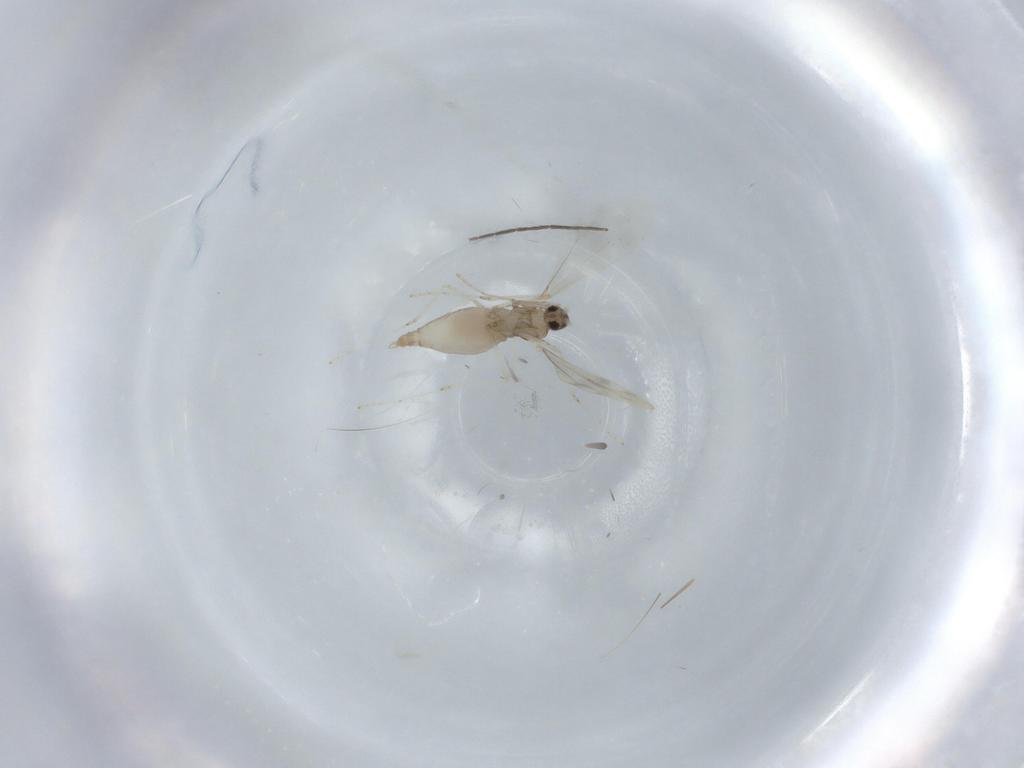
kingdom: Animalia
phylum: Arthropoda
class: Insecta
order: Diptera
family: Cecidomyiidae
